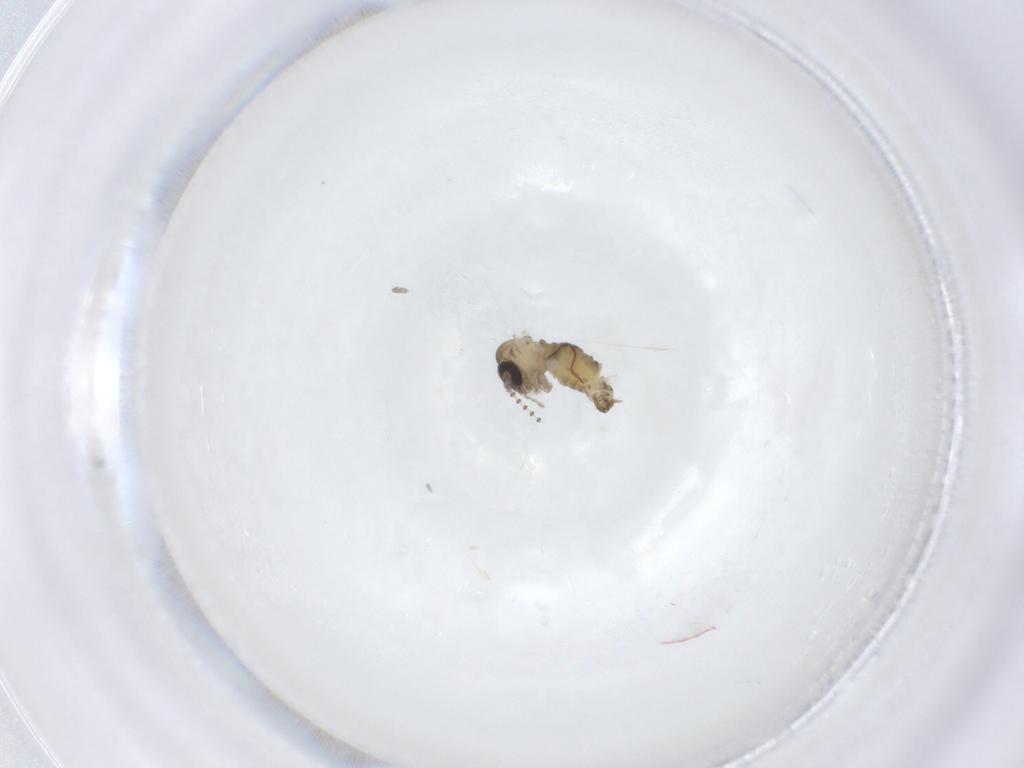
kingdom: Animalia
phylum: Arthropoda
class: Insecta
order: Diptera
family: Psychodidae
